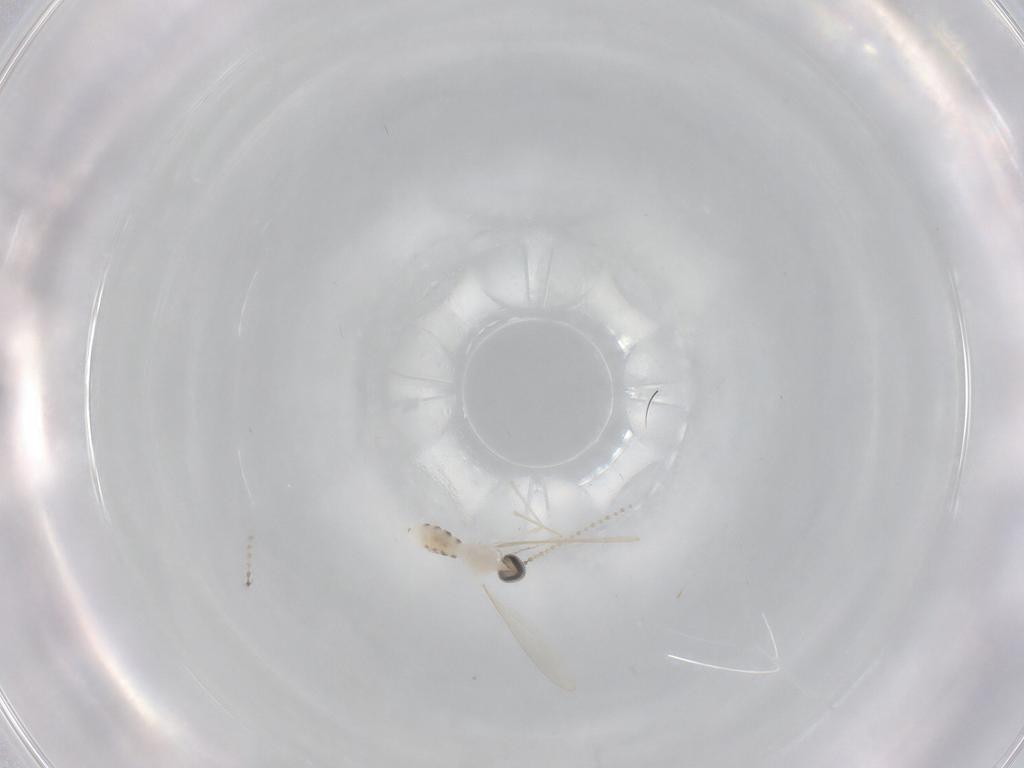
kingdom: Animalia
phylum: Arthropoda
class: Insecta
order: Diptera
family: Cecidomyiidae
